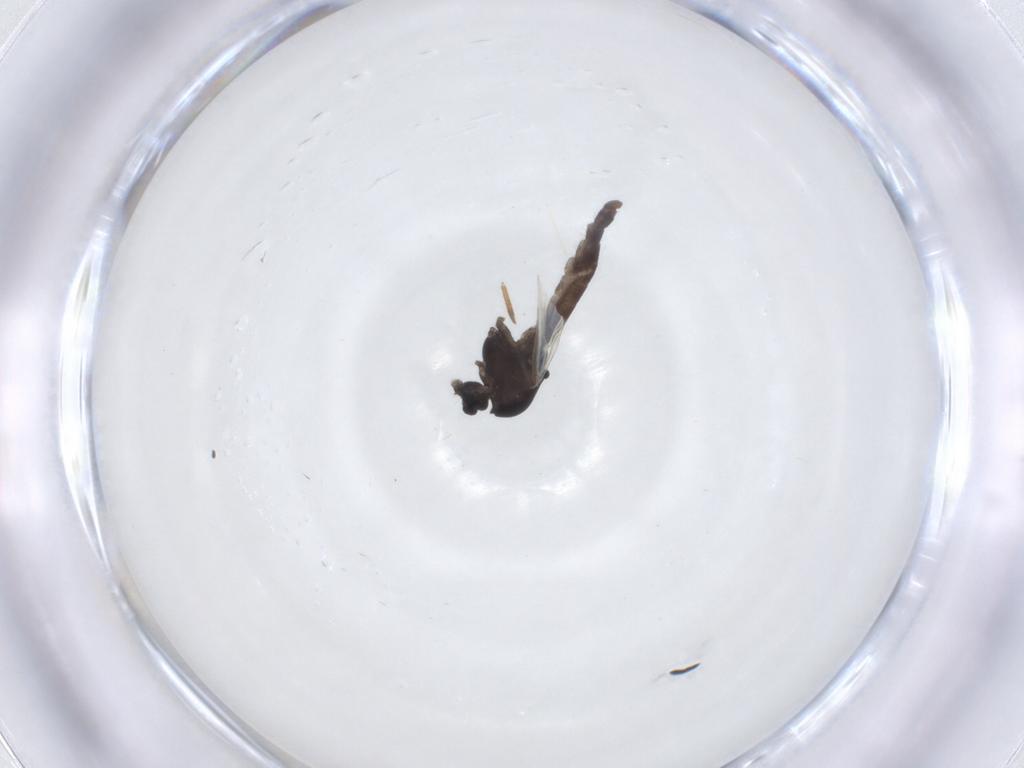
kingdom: Animalia
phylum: Arthropoda
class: Insecta
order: Diptera
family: Chironomidae
